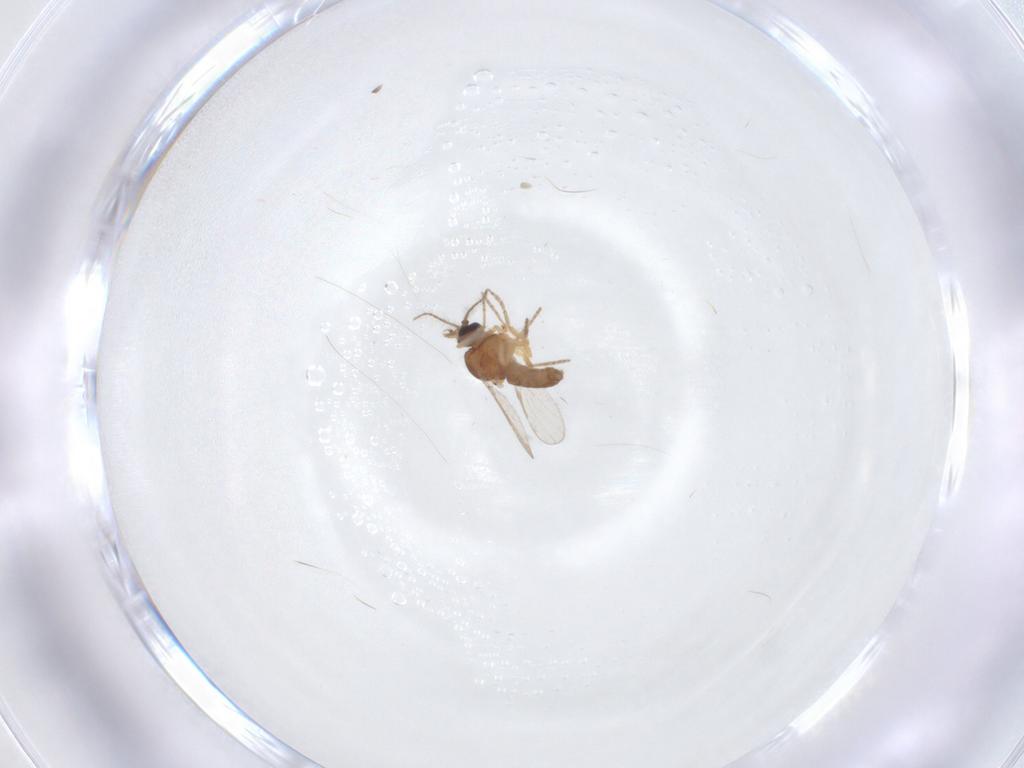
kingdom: Animalia
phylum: Arthropoda
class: Insecta
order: Diptera
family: Ceratopogonidae
